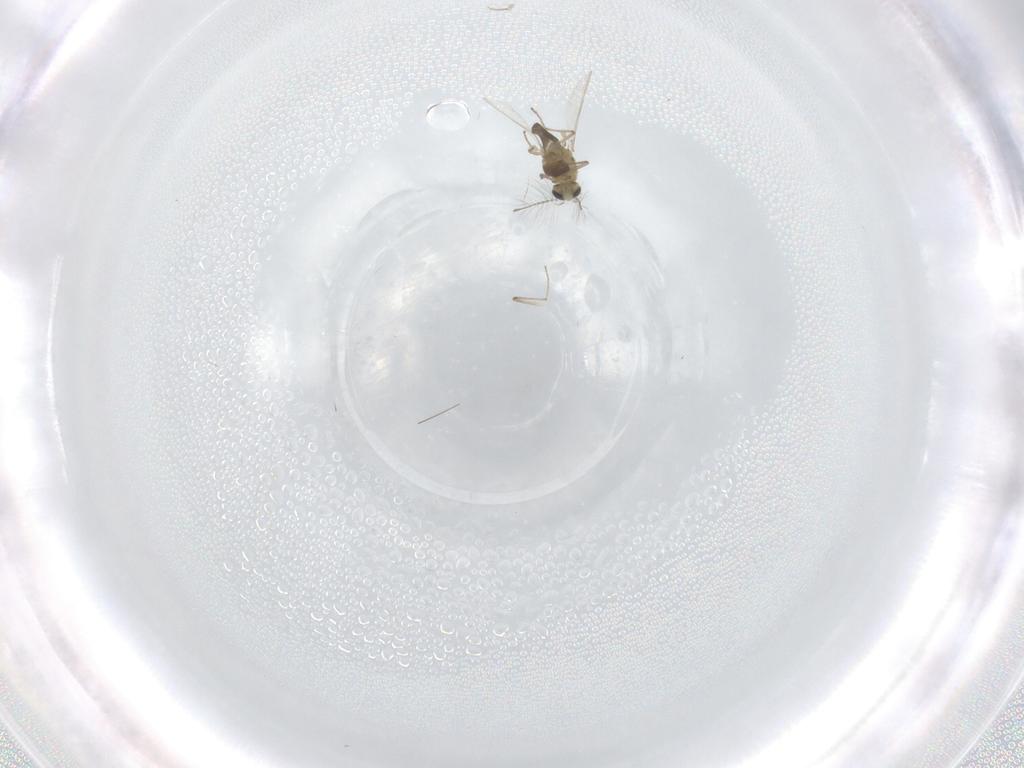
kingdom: Animalia
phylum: Arthropoda
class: Insecta
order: Diptera
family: Chironomidae
